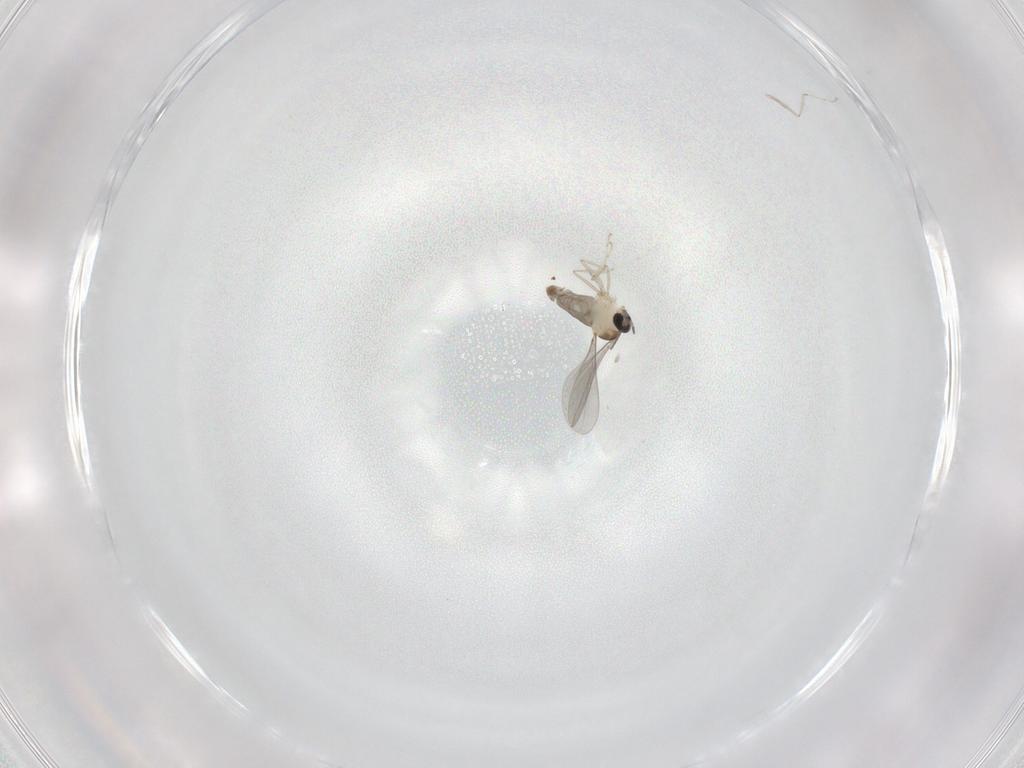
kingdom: Animalia
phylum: Arthropoda
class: Insecta
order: Diptera
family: Cecidomyiidae
